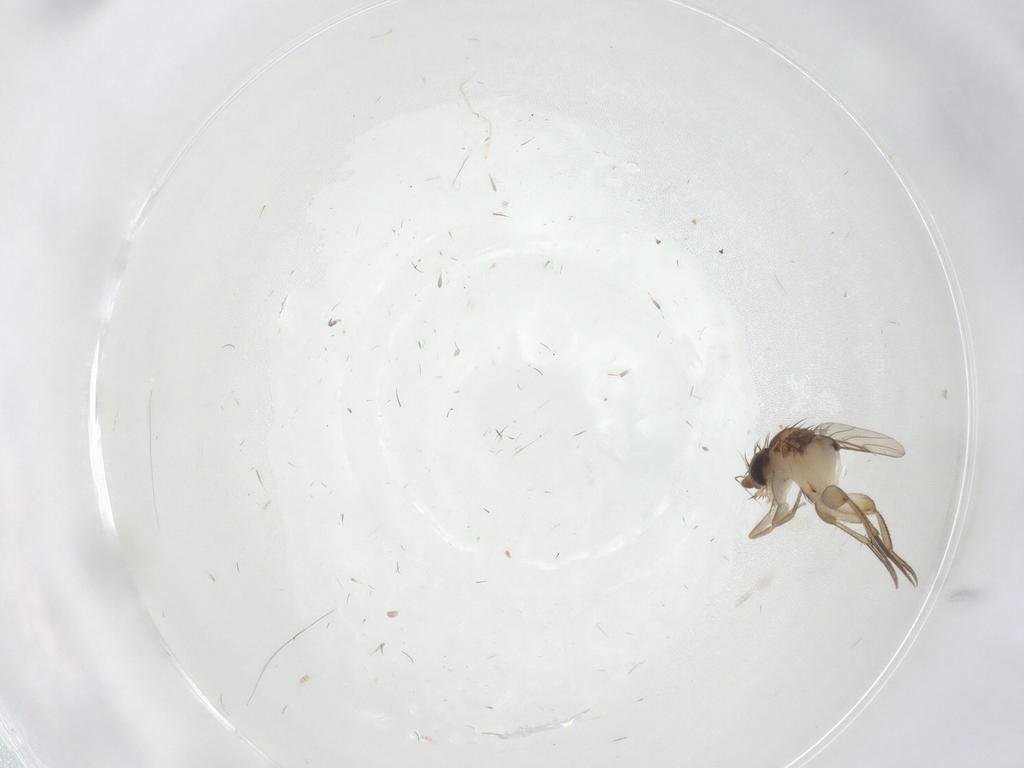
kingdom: Animalia
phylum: Arthropoda
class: Insecta
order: Diptera
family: Phoridae
